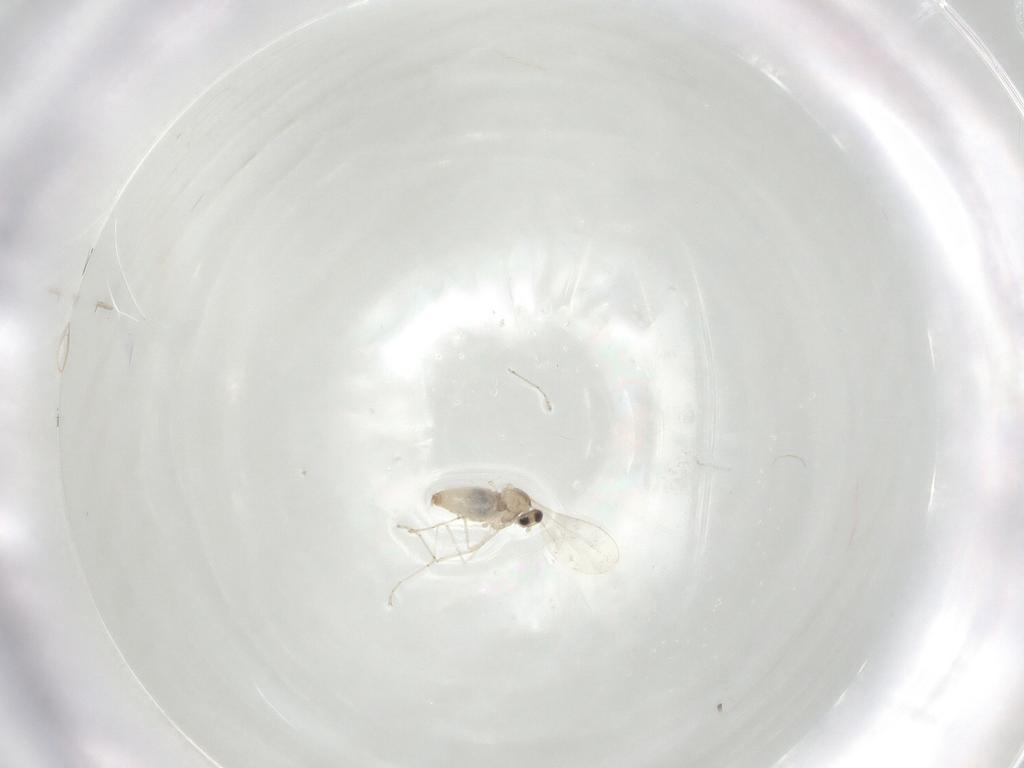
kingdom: Animalia
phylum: Arthropoda
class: Insecta
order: Diptera
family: Cecidomyiidae
